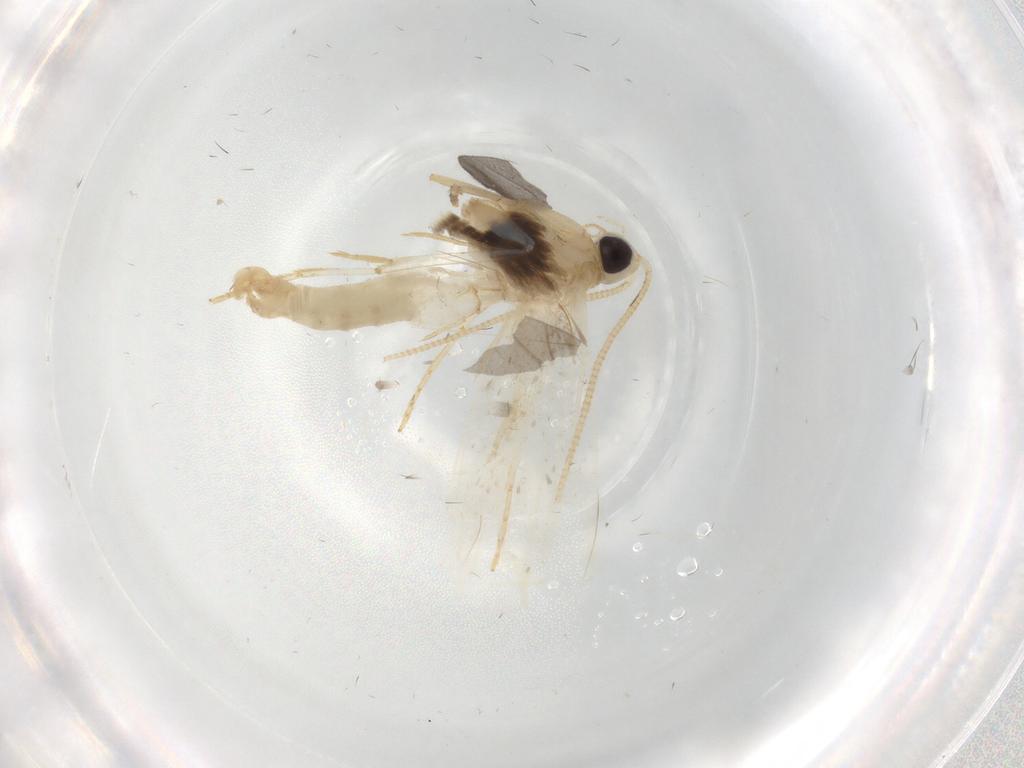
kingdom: Animalia
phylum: Arthropoda
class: Insecta
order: Lepidoptera
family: Tineidae
